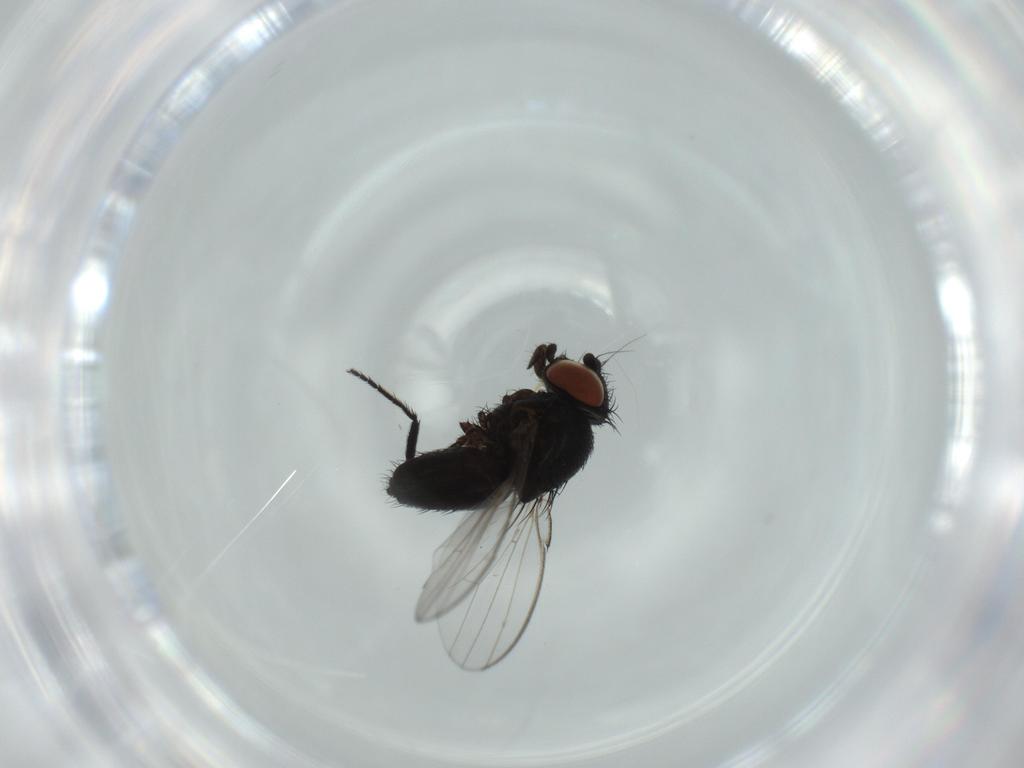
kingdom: Animalia
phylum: Arthropoda
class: Insecta
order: Diptera
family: Milichiidae
